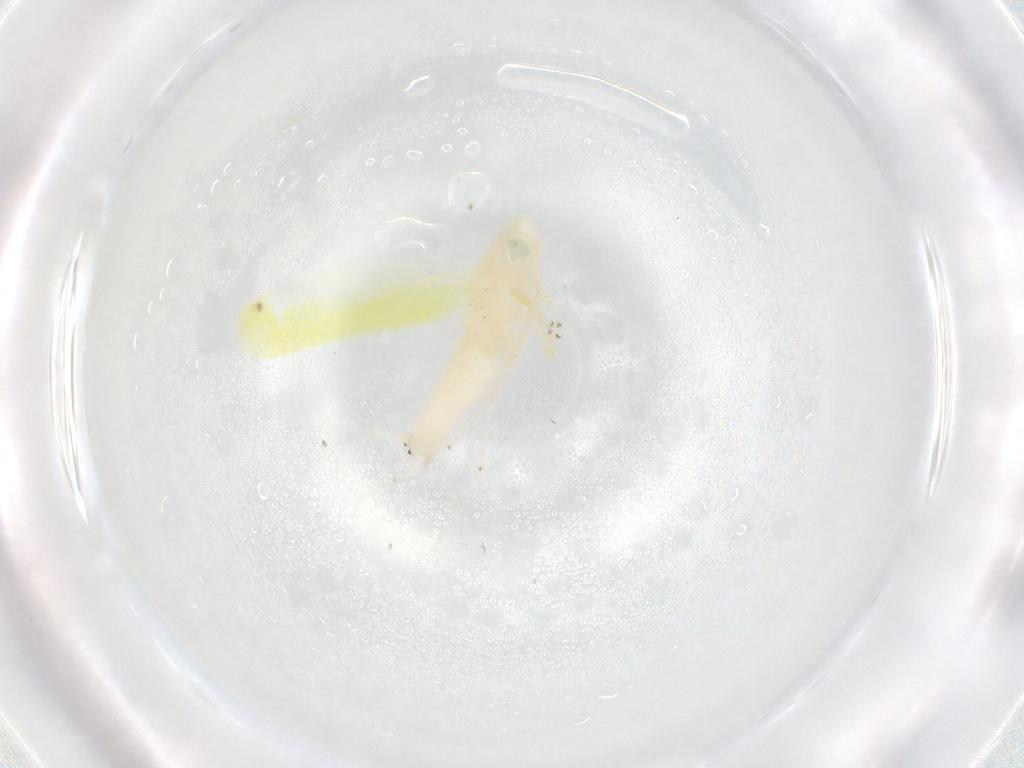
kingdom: Animalia
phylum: Arthropoda
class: Insecta
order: Hemiptera
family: Cicadellidae
